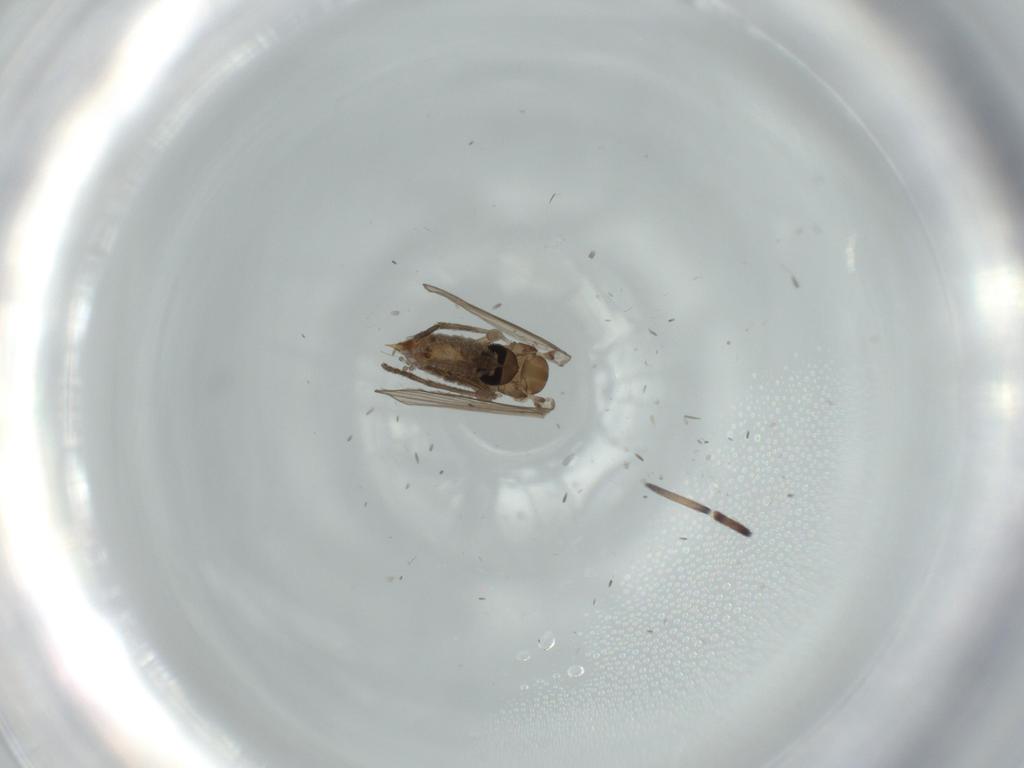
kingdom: Animalia
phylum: Arthropoda
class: Insecta
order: Diptera
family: Psychodidae
